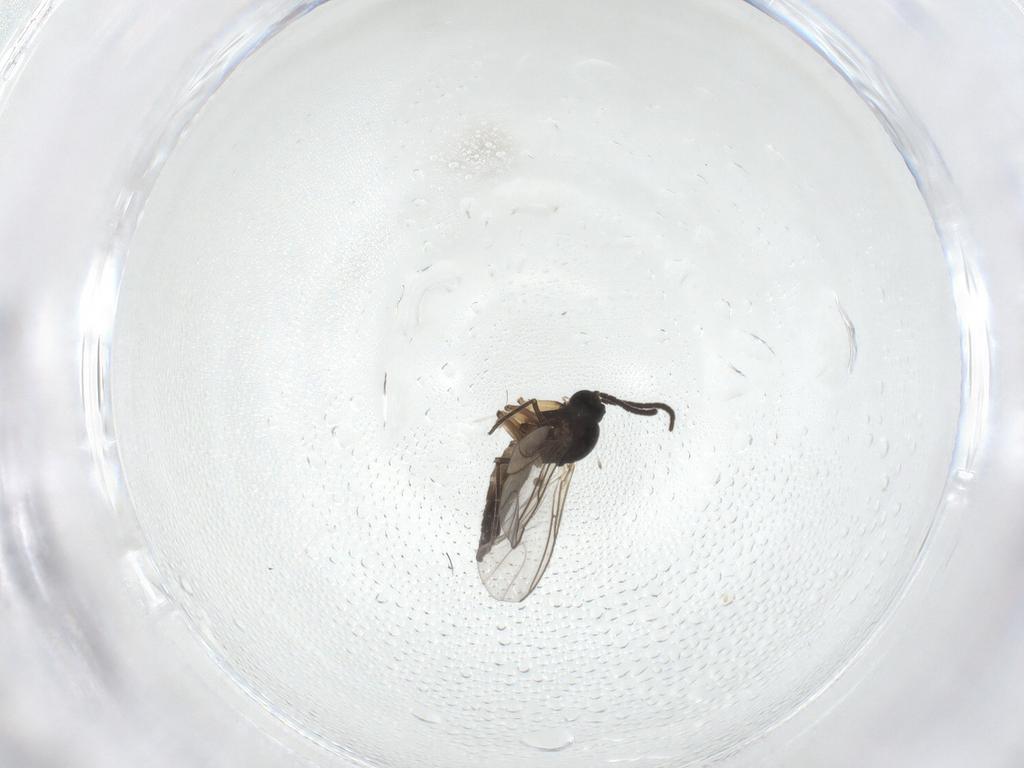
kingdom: Animalia
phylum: Arthropoda
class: Insecta
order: Diptera
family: Cecidomyiidae
